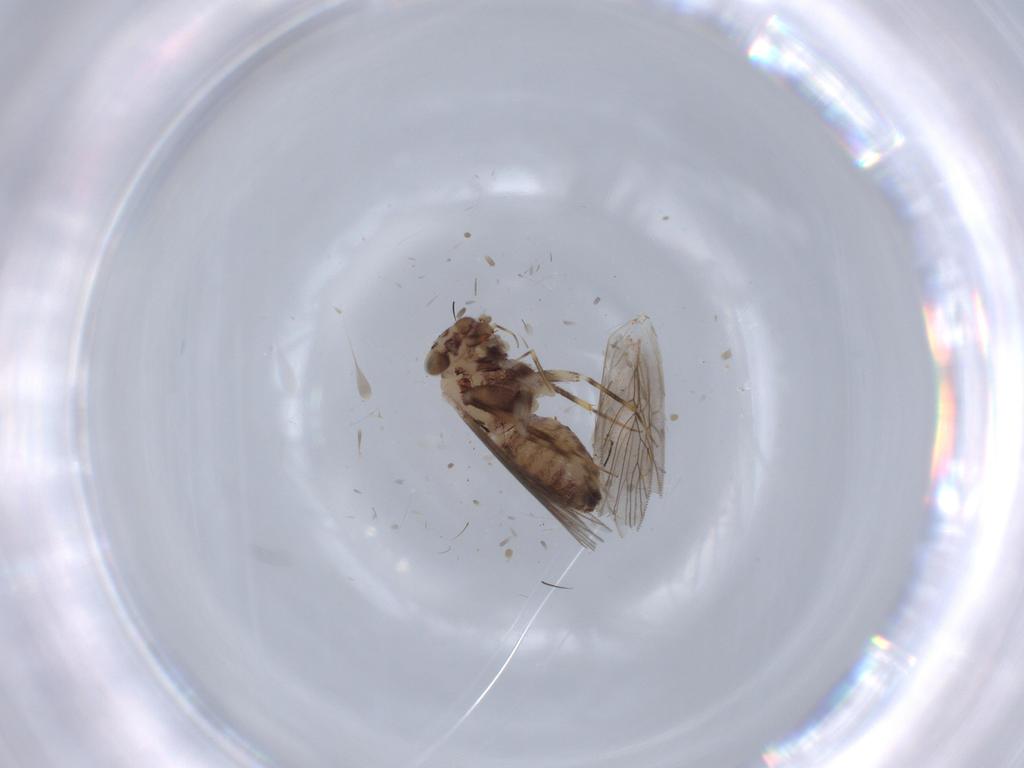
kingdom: Animalia
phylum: Arthropoda
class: Insecta
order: Psocodea
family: Lepidopsocidae
